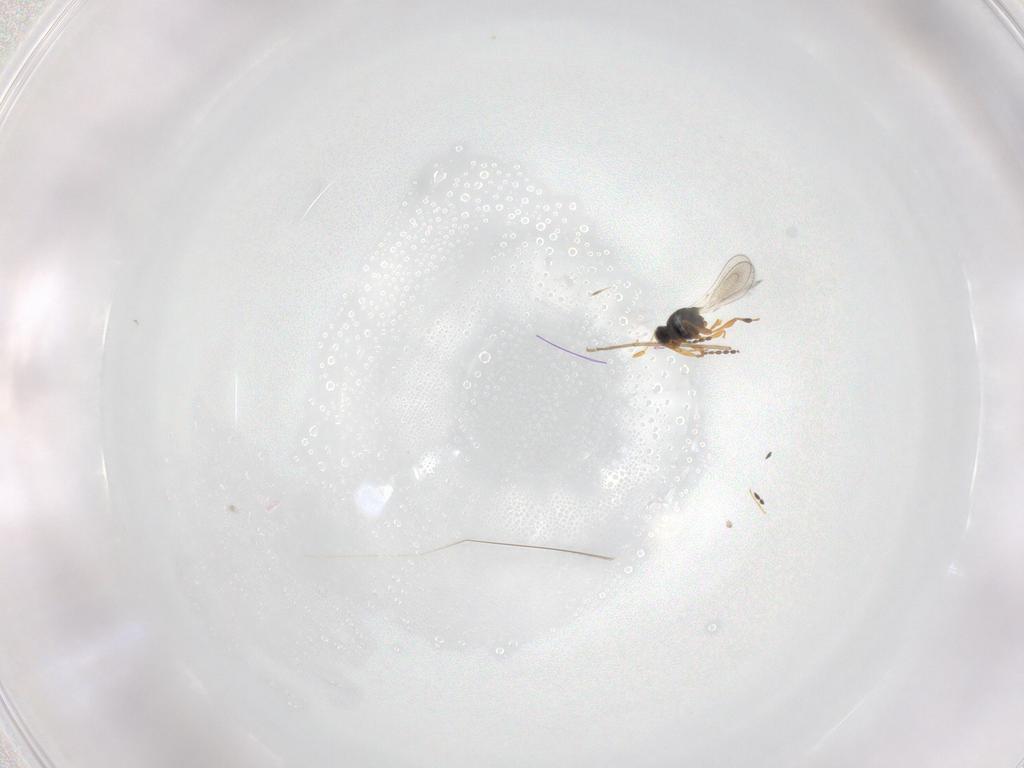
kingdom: Animalia
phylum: Arthropoda
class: Insecta
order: Hymenoptera
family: Platygastridae
